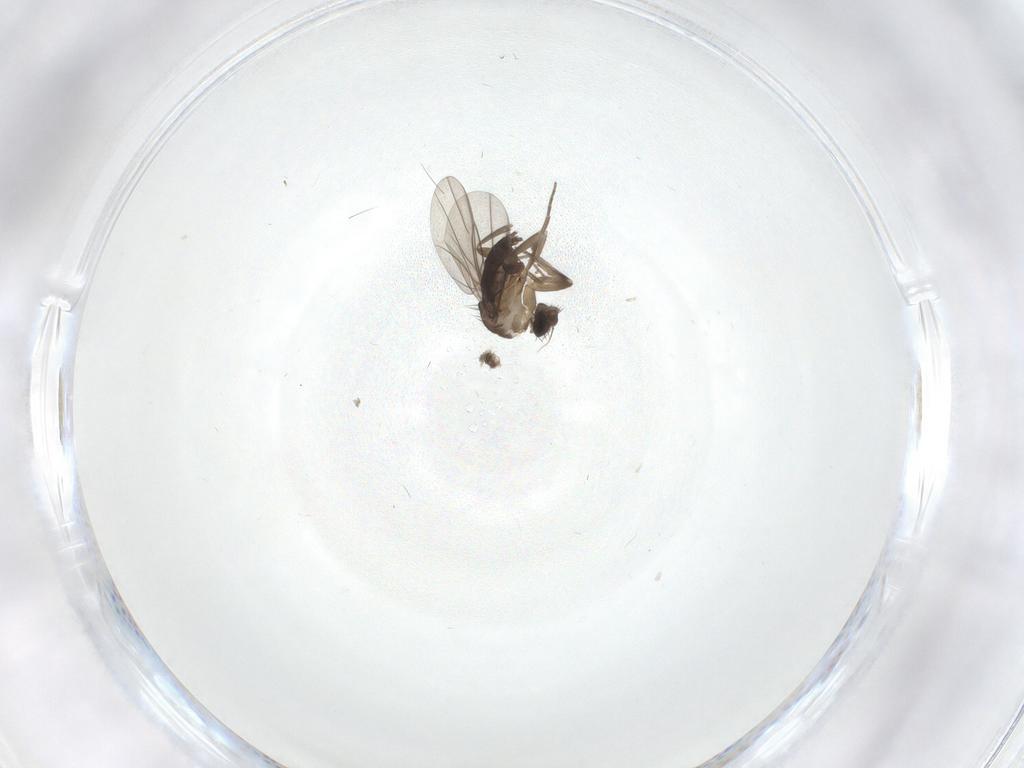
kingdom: Animalia
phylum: Arthropoda
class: Insecta
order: Diptera
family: Phoridae
